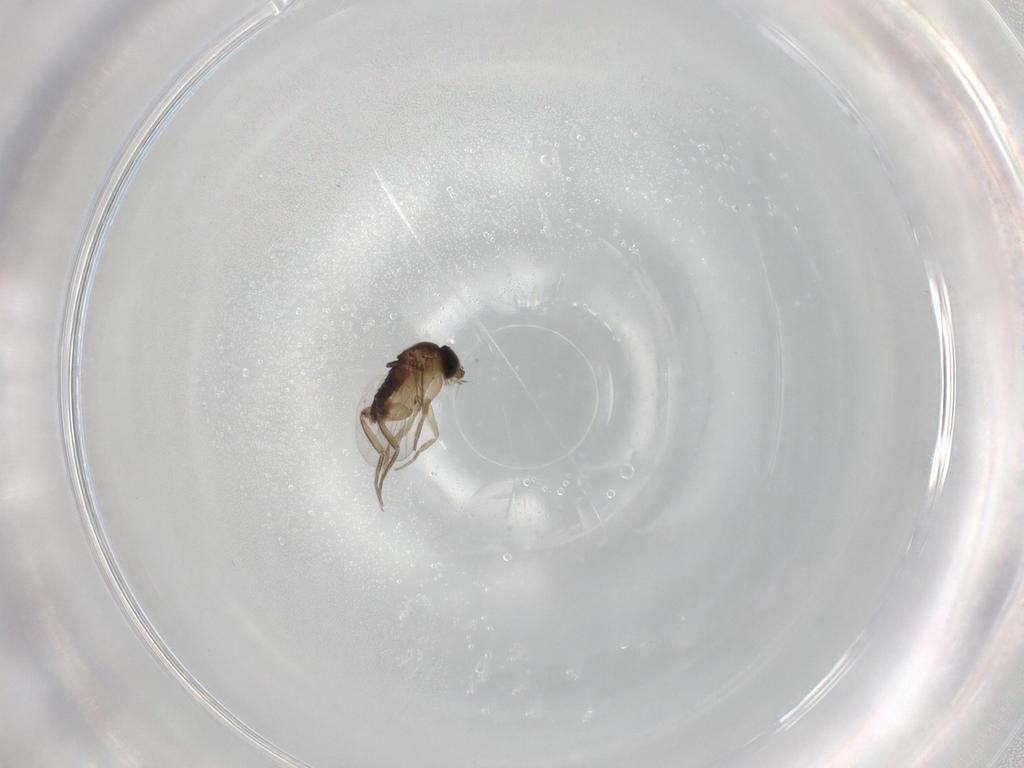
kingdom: Animalia
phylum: Arthropoda
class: Insecta
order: Diptera
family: Phoridae
